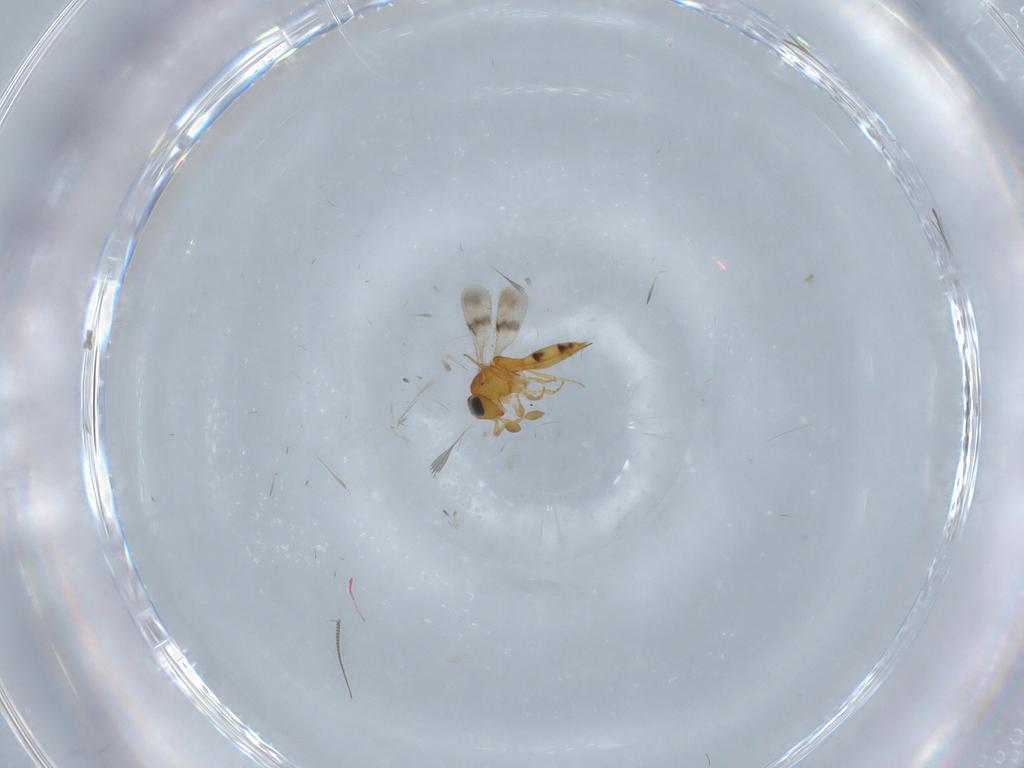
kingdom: Animalia
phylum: Arthropoda
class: Insecta
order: Hymenoptera
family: Scelionidae
